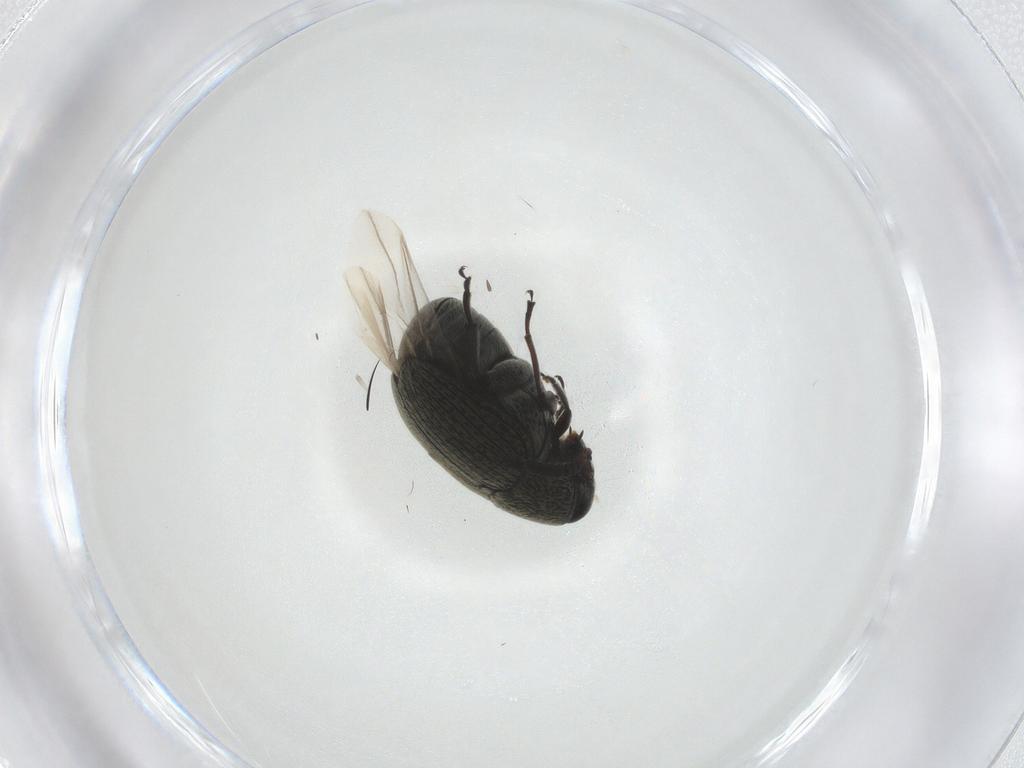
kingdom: Animalia
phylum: Arthropoda
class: Insecta
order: Coleoptera
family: Chrysomelidae
